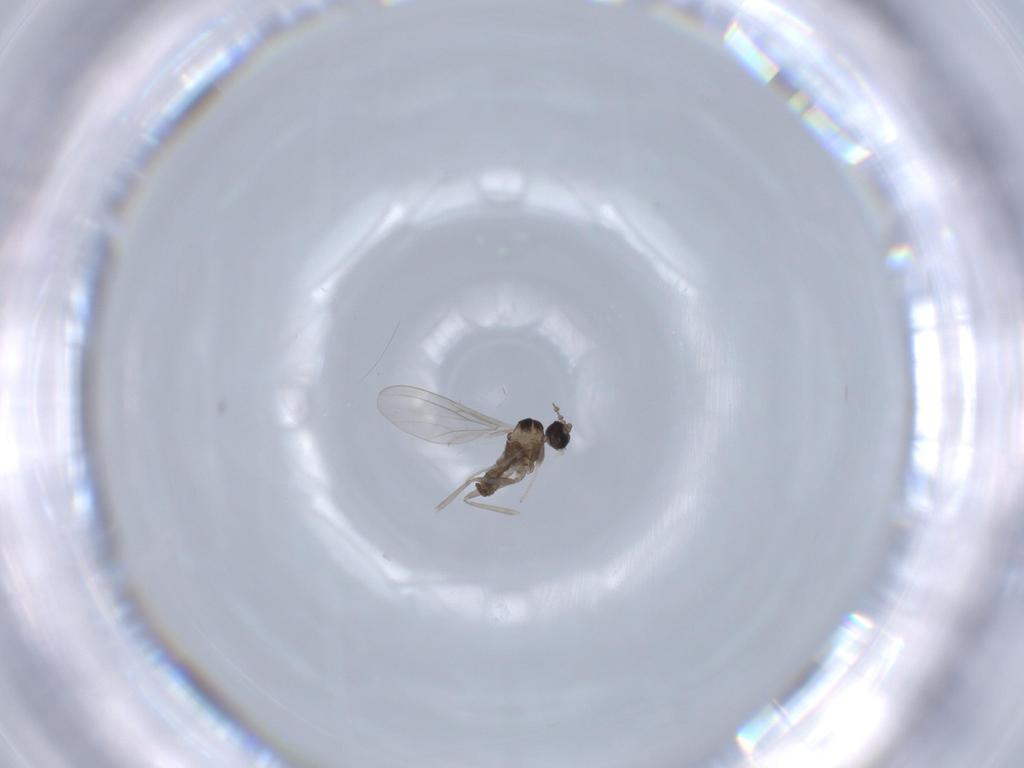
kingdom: Animalia
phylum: Arthropoda
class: Insecta
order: Diptera
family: Cecidomyiidae
